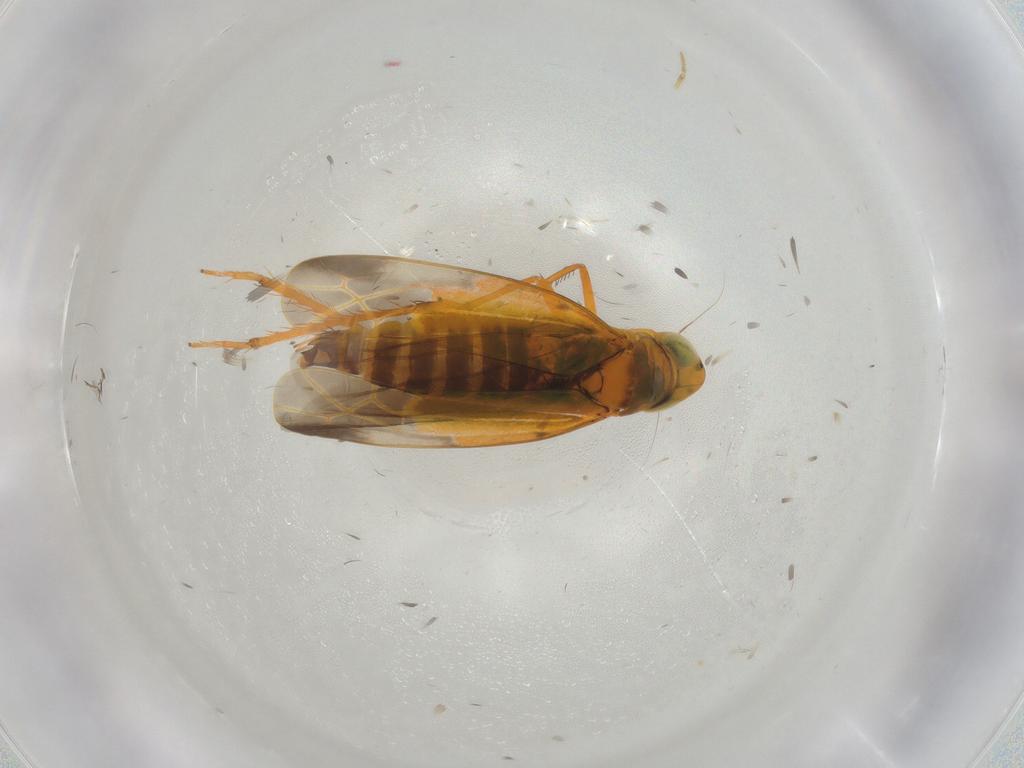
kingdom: Animalia
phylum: Arthropoda
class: Insecta
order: Hemiptera
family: Cicadellidae
